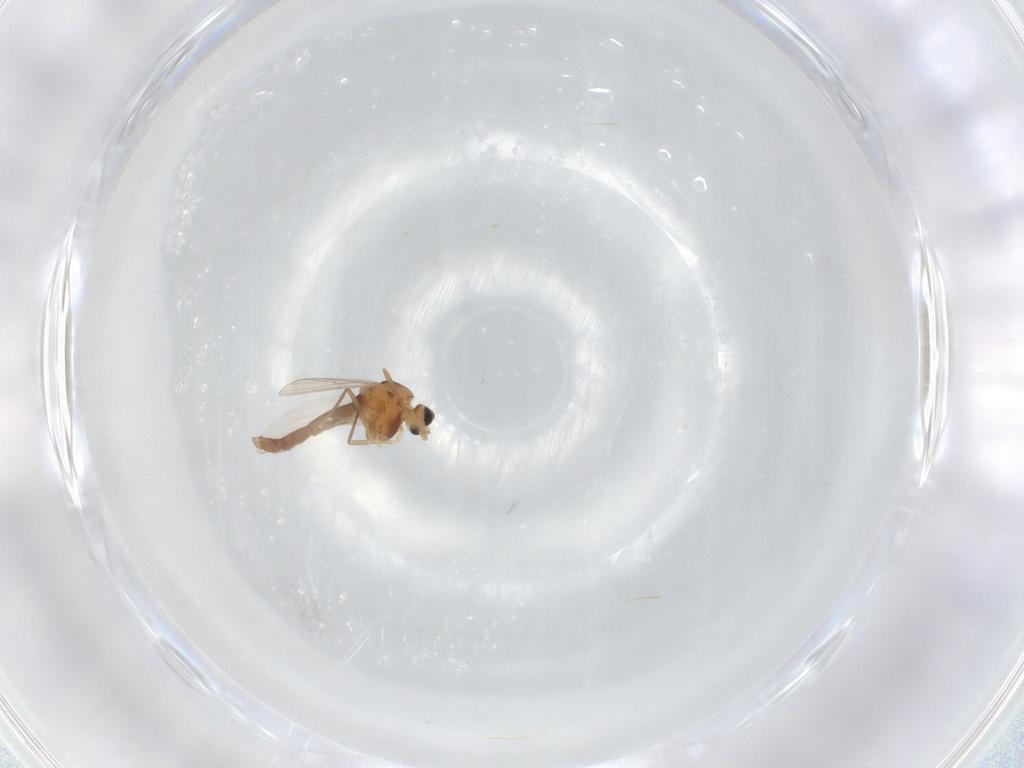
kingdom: Animalia
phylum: Arthropoda
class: Insecta
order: Diptera
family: Chironomidae
